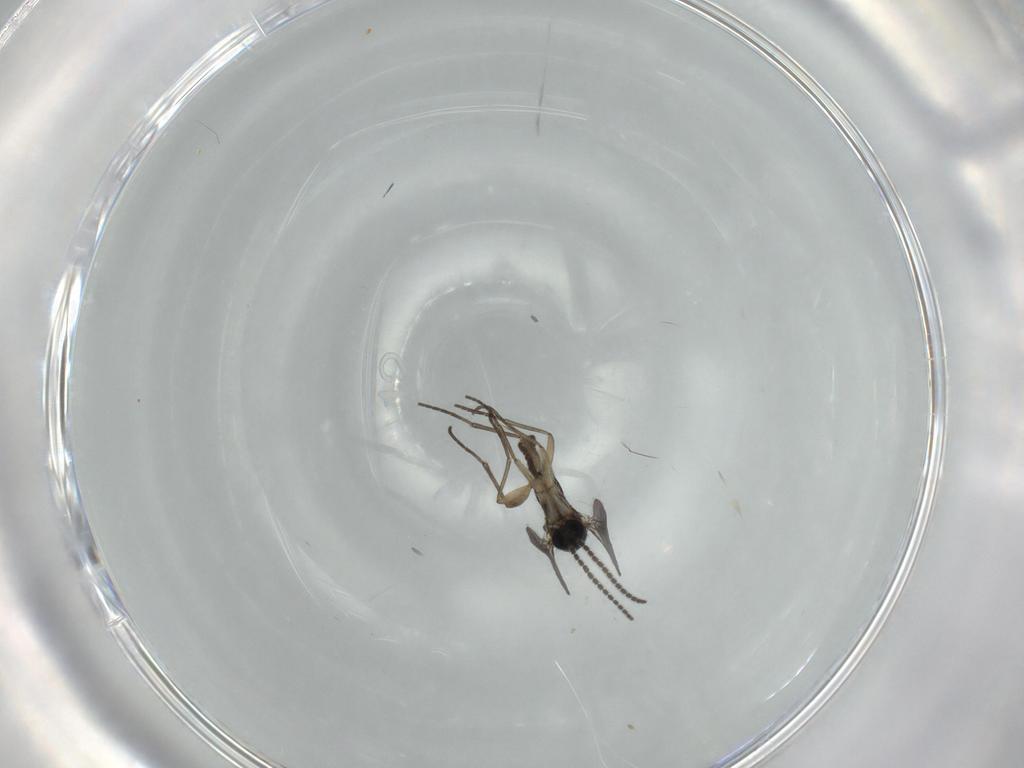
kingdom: Animalia
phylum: Arthropoda
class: Insecta
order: Diptera
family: Sciaridae
